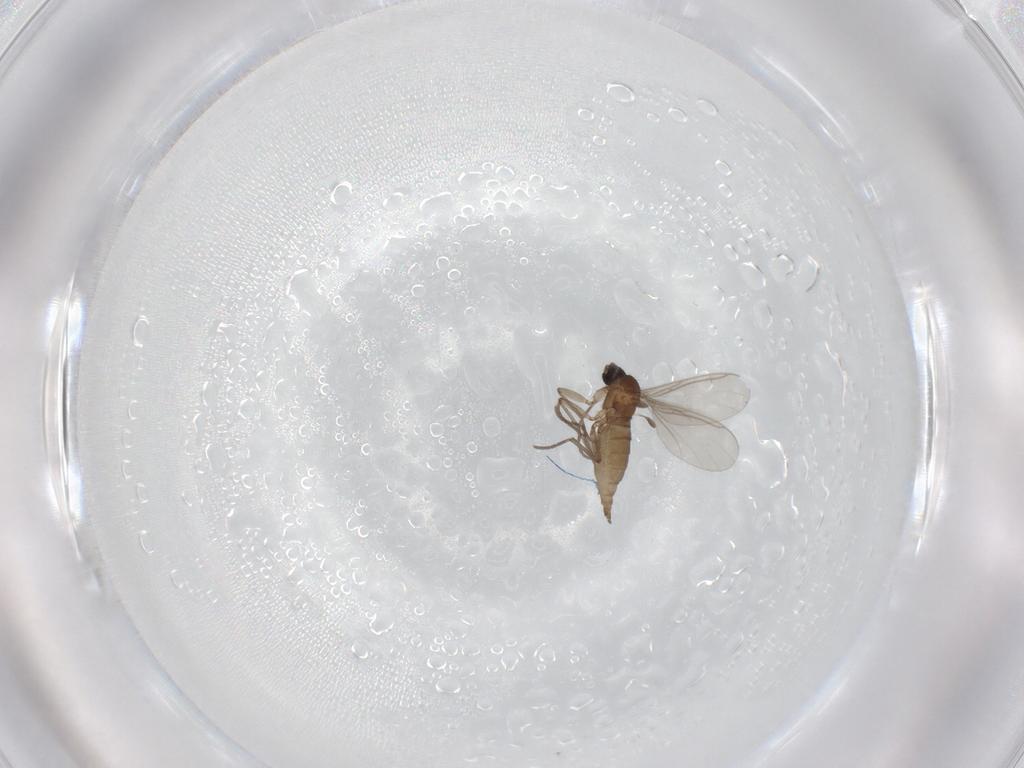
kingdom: Animalia
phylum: Arthropoda
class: Insecta
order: Diptera
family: Sciaridae
